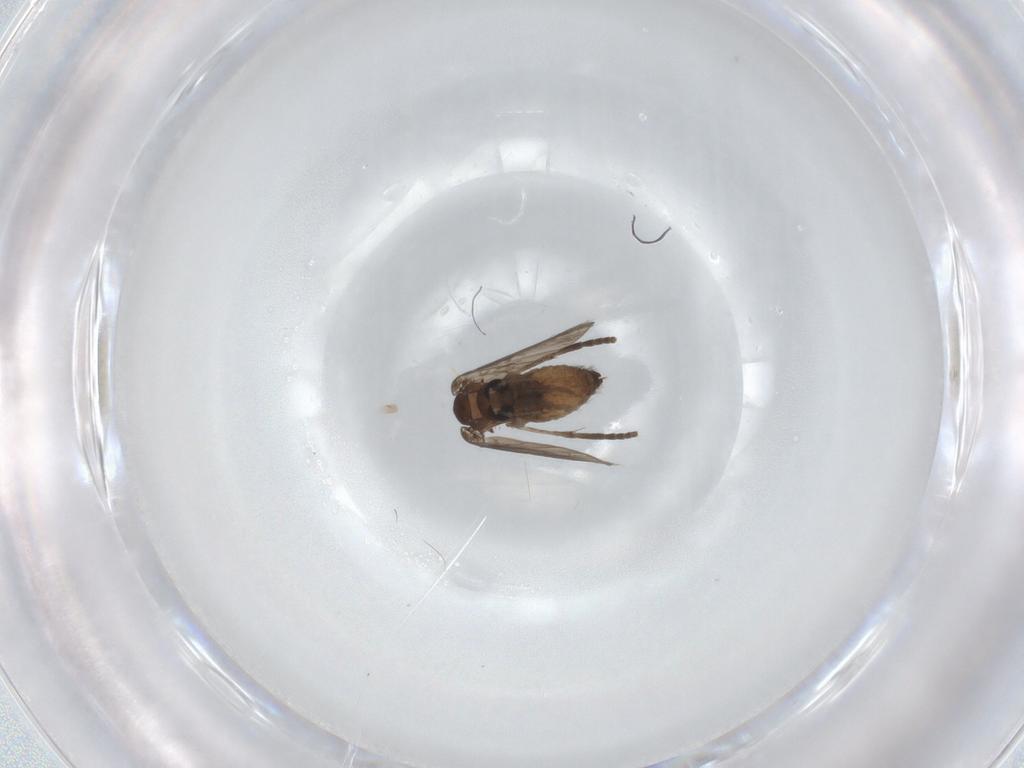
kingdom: Animalia
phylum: Arthropoda
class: Insecta
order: Diptera
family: Psychodidae
